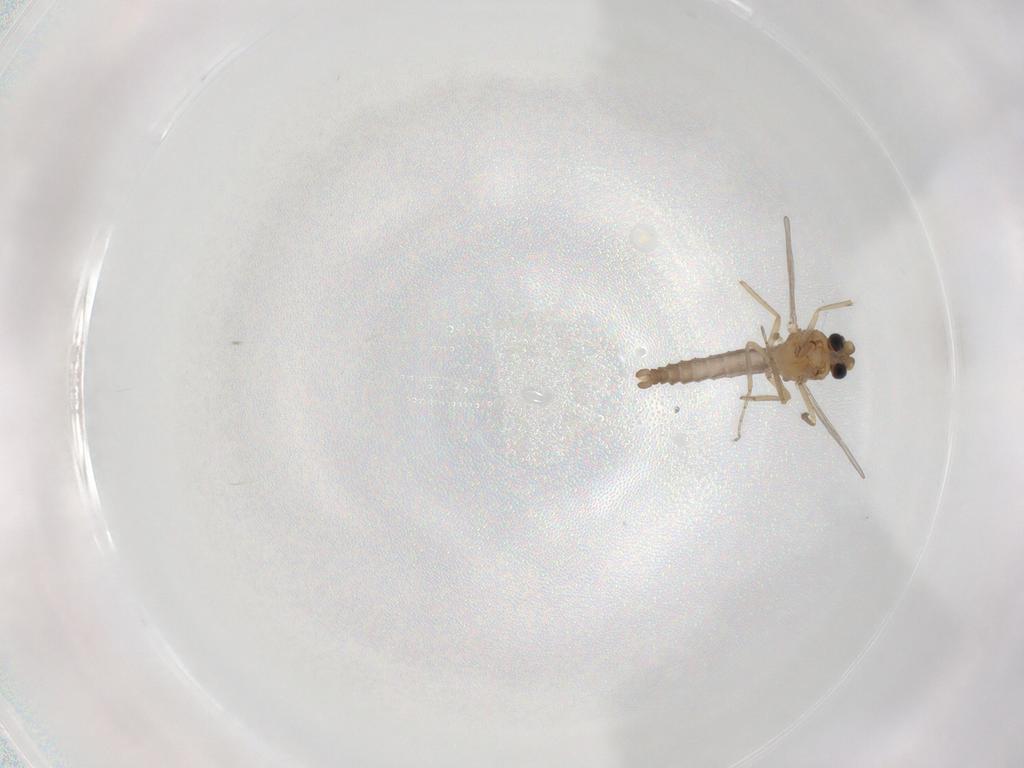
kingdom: Animalia
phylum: Arthropoda
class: Insecta
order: Diptera
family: Ceratopogonidae
